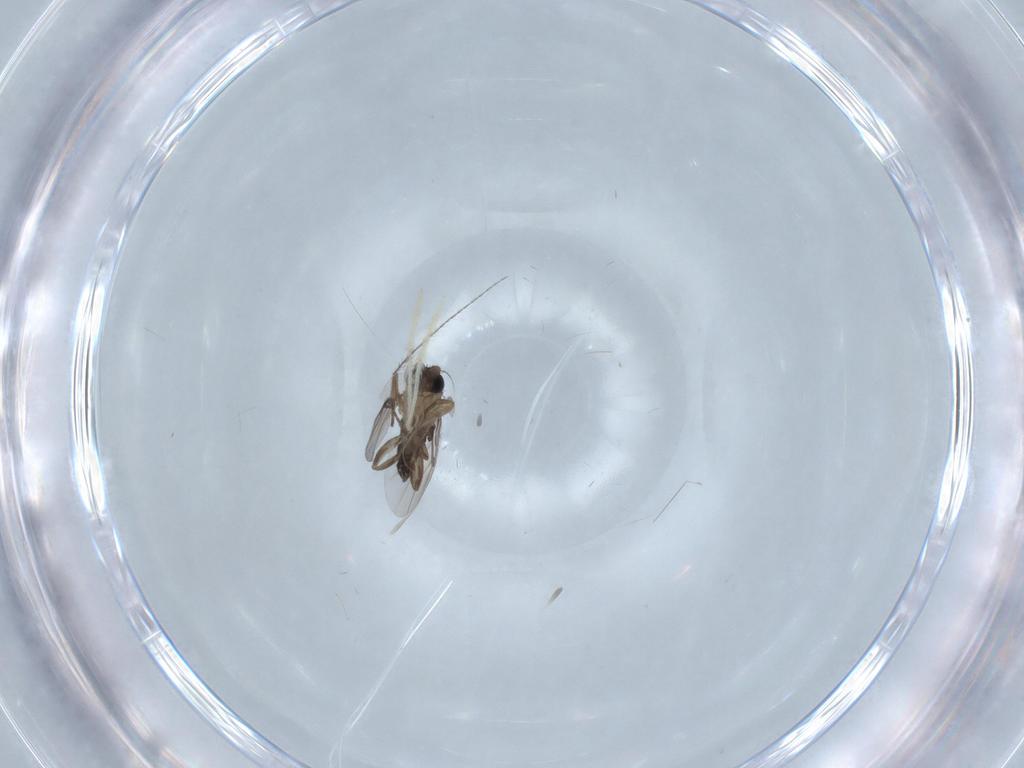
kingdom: Animalia
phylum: Arthropoda
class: Insecta
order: Diptera
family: Chironomidae
